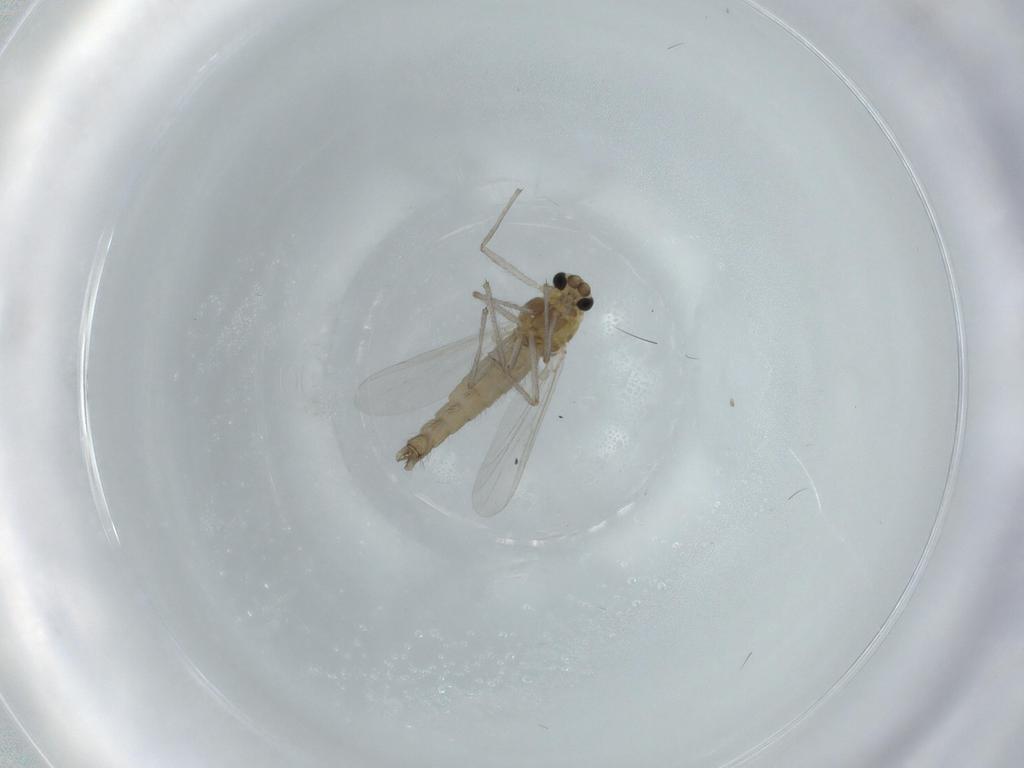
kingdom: Animalia
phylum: Arthropoda
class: Insecta
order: Diptera
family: Chironomidae
